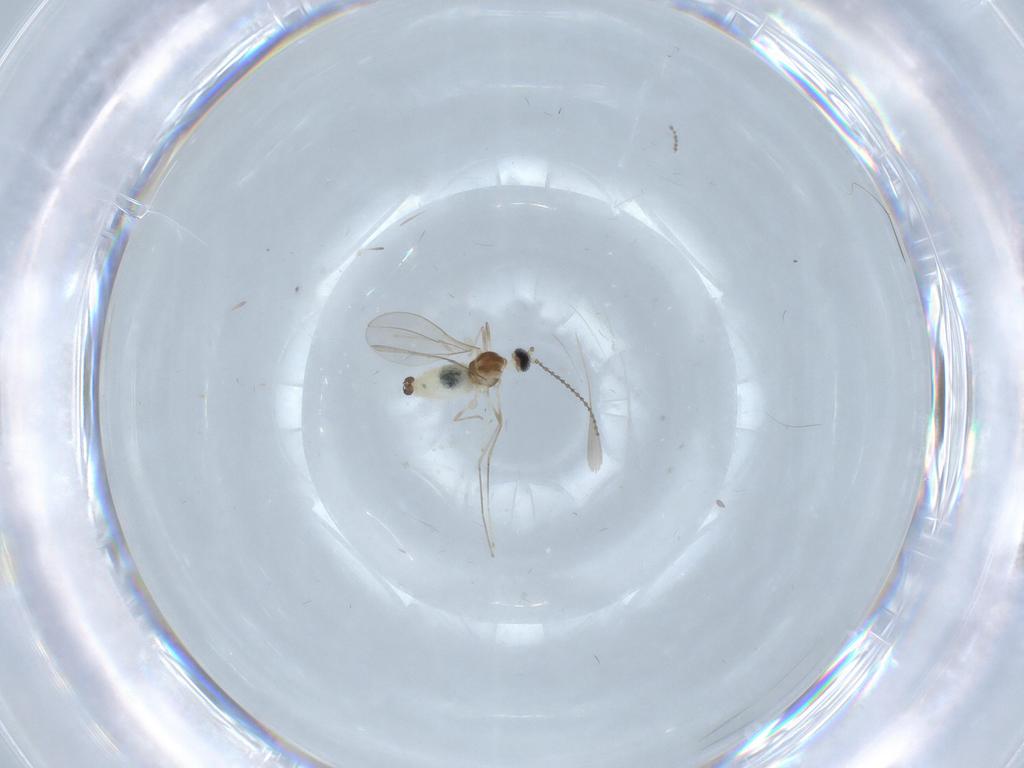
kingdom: Animalia
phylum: Arthropoda
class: Insecta
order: Diptera
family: Cecidomyiidae
